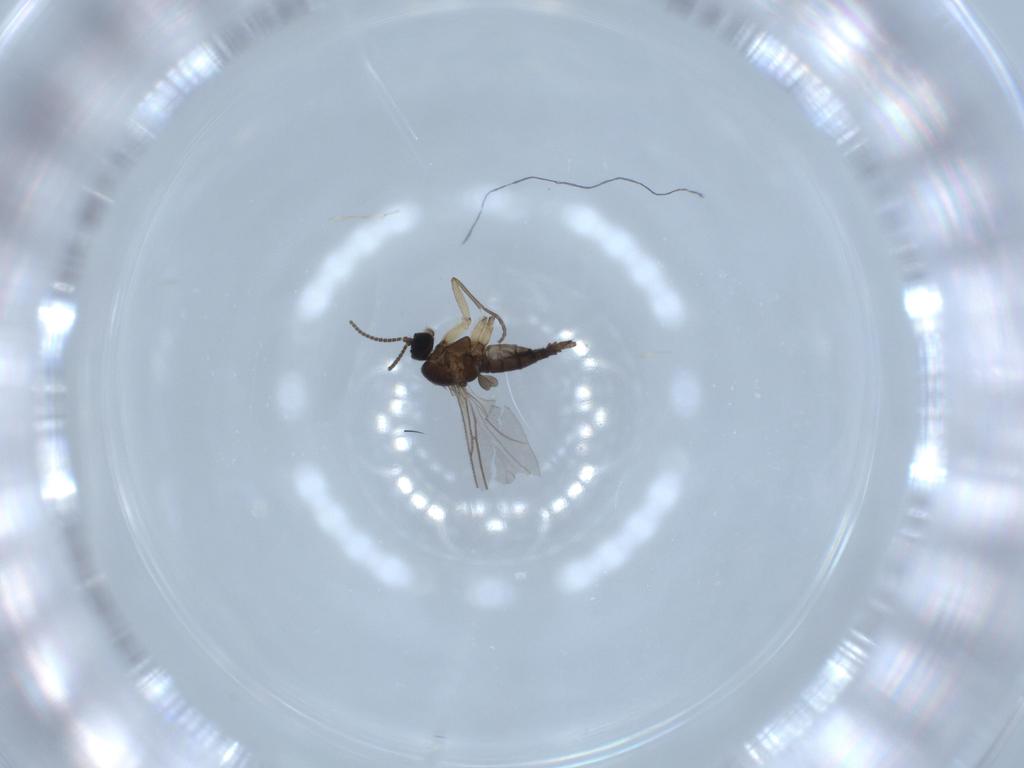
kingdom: Animalia
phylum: Arthropoda
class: Insecta
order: Diptera
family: Sciaridae
